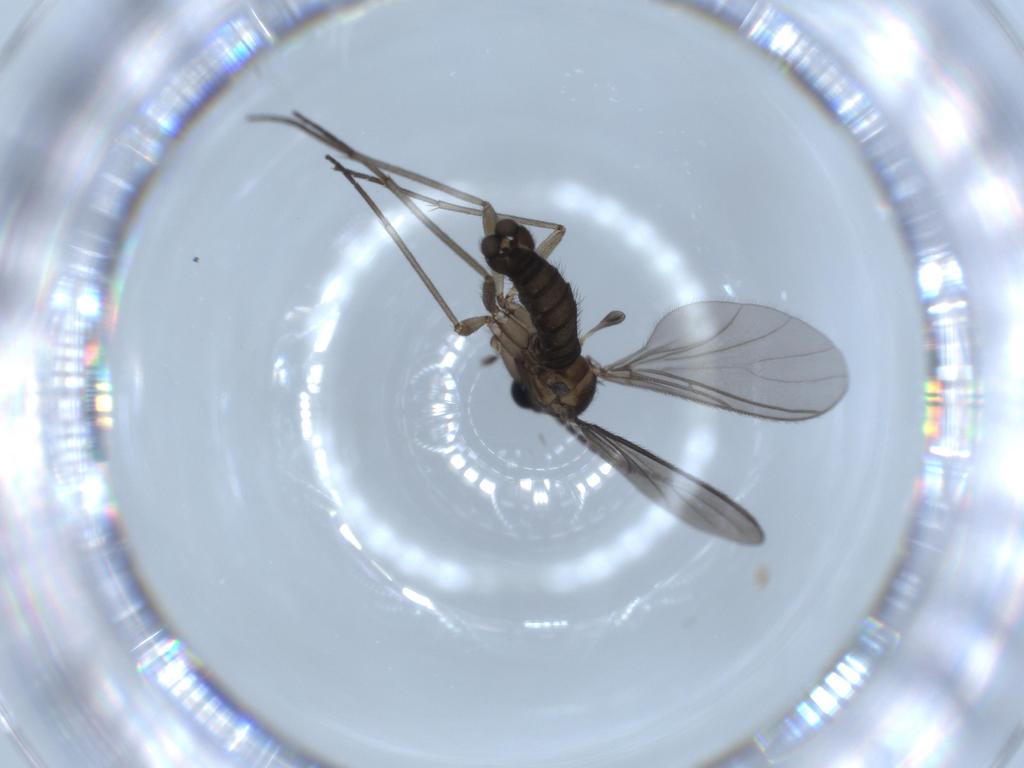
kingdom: Animalia
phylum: Arthropoda
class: Insecta
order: Diptera
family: Sciaridae
